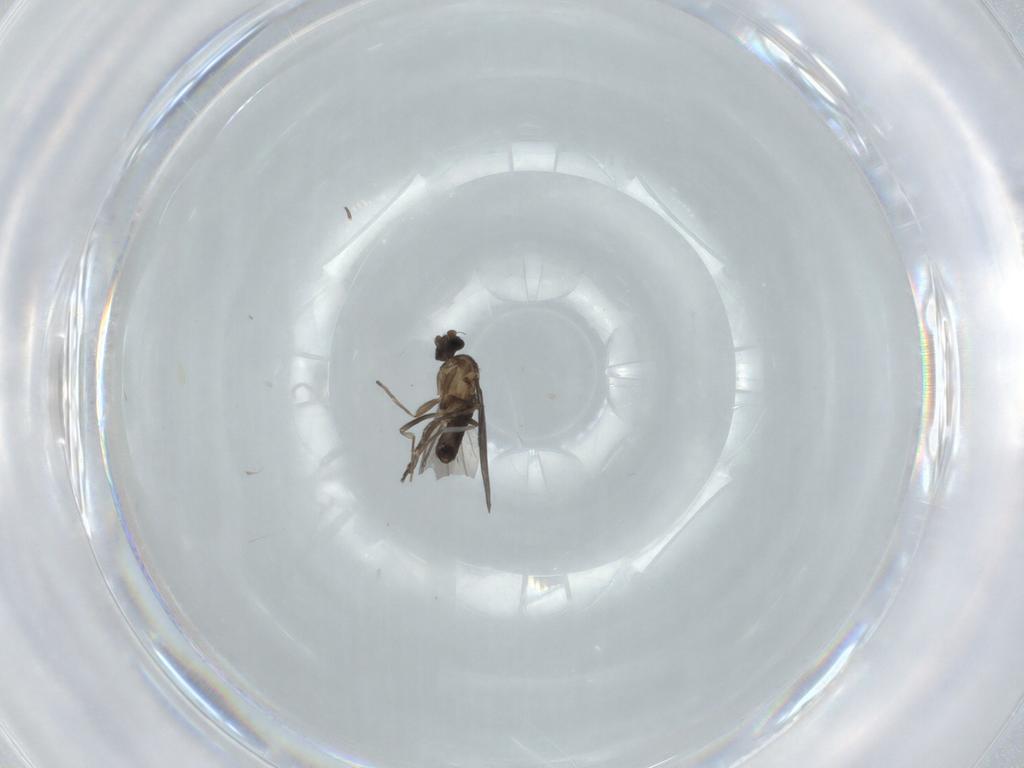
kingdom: Animalia
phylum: Arthropoda
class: Insecta
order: Diptera
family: Phoridae
